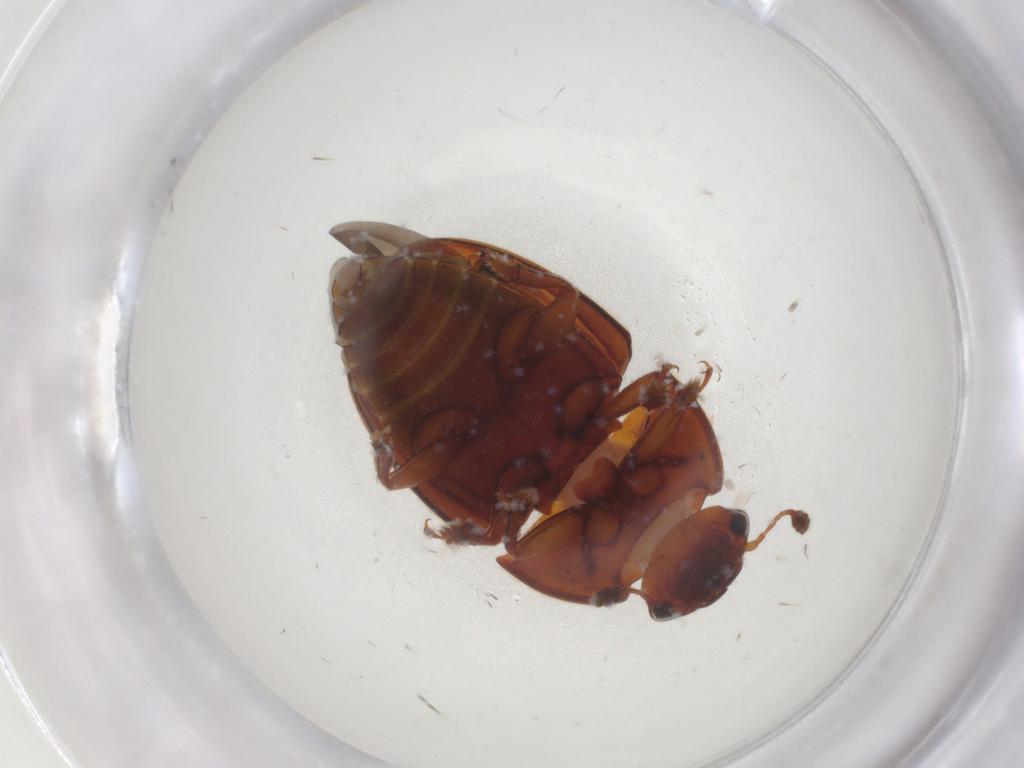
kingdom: Animalia
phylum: Arthropoda
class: Insecta
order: Coleoptera
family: Nitidulidae
